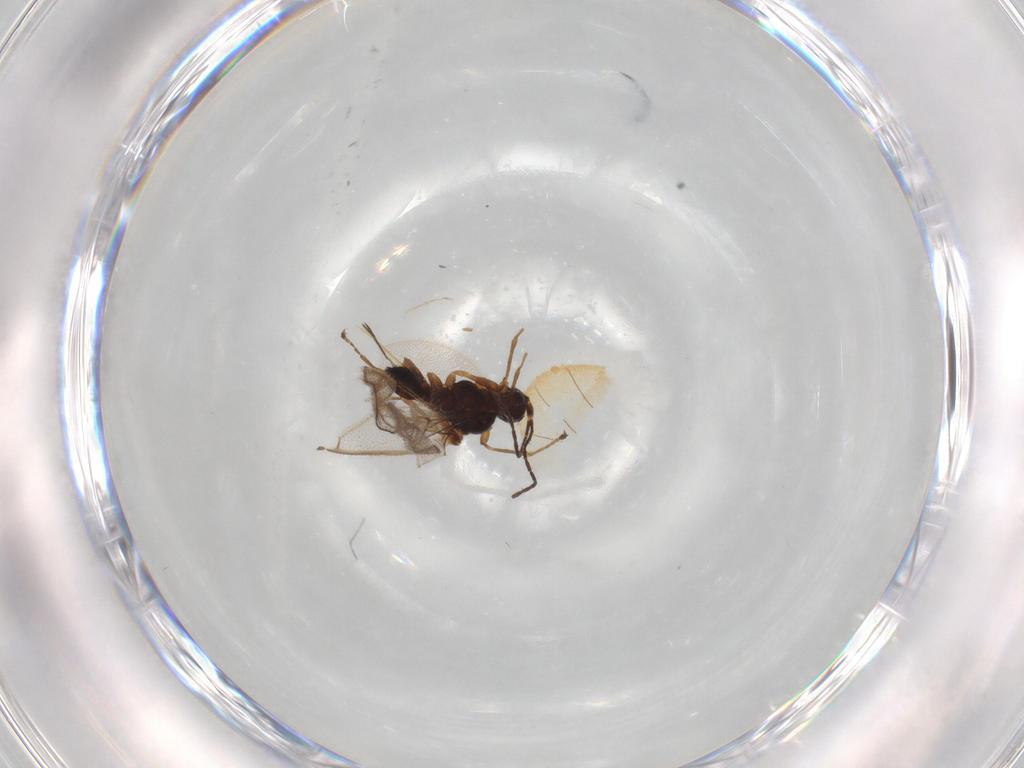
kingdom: Animalia
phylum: Arthropoda
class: Insecta
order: Hymenoptera
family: Braconidae
